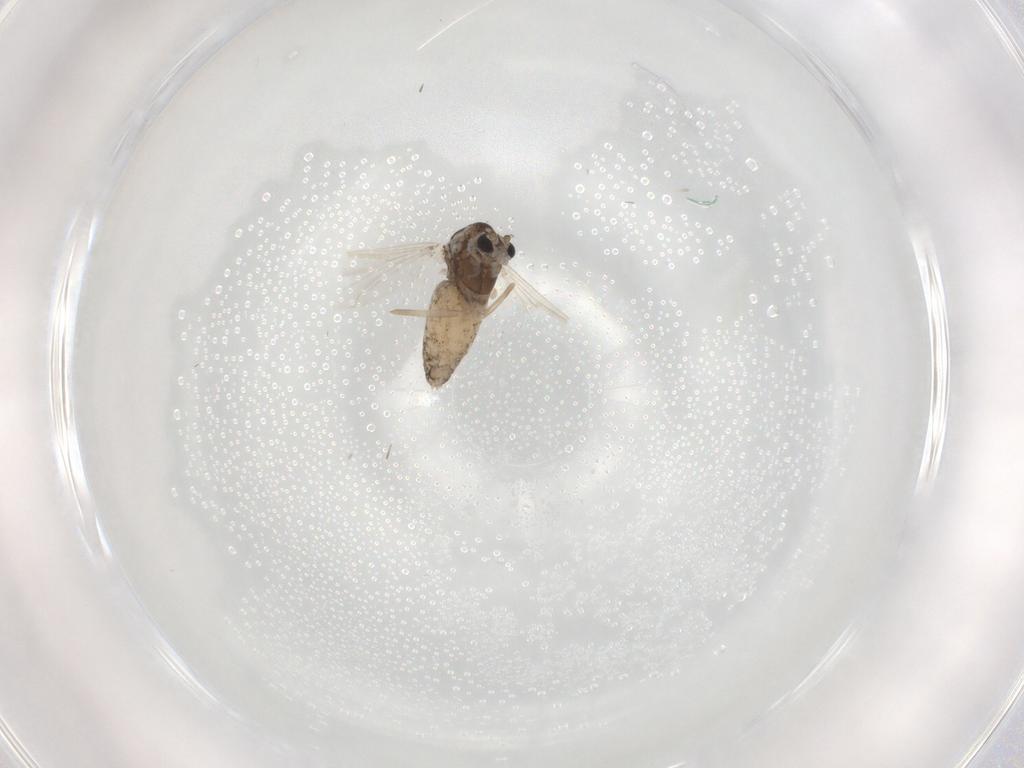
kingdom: Animalia
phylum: Arthropoda
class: Insecta
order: Diptera
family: Chironomidae
